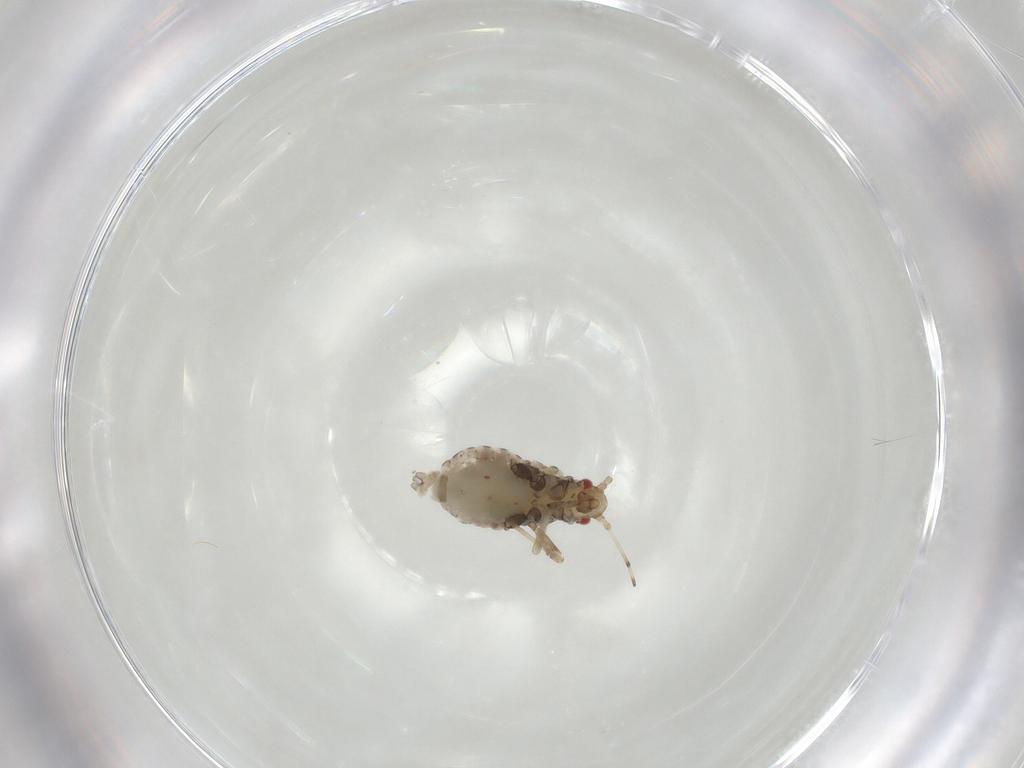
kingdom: Animalia
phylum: Arthropoda
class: Insecta
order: Hemiptera
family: Aphididae
